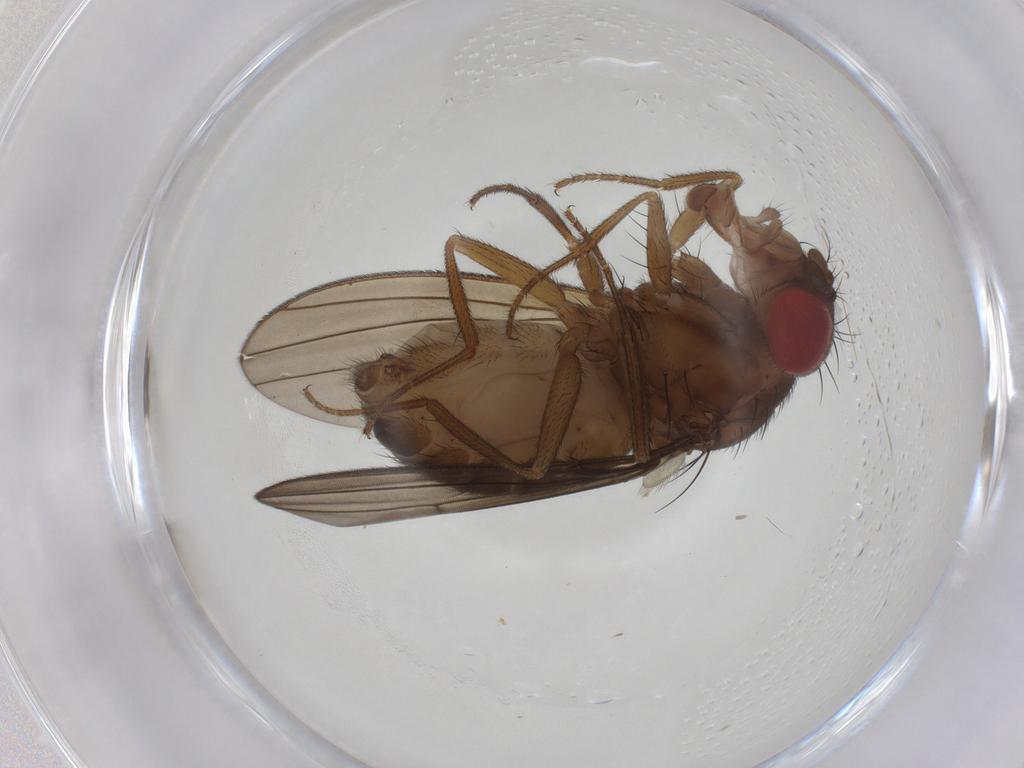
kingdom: Animalia
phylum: Arthropoda
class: Insecta
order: Diptera
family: Drosophilidae
